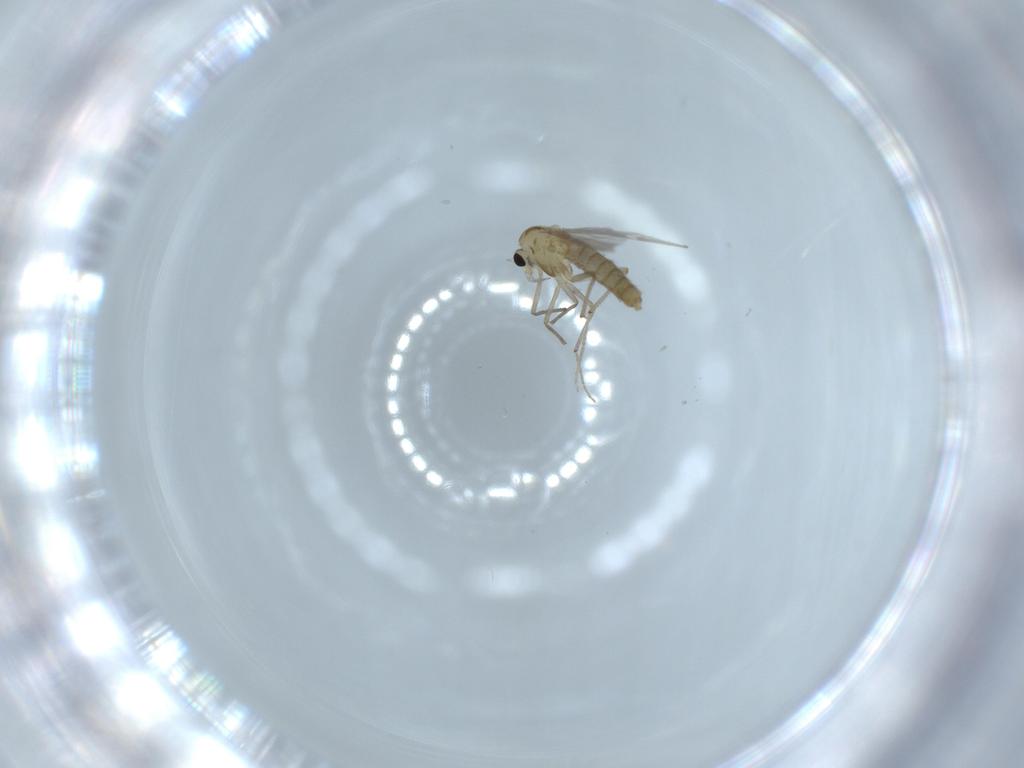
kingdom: Animalia
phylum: Arthropoda
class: Insecta
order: Diptera
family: Chironomidae
